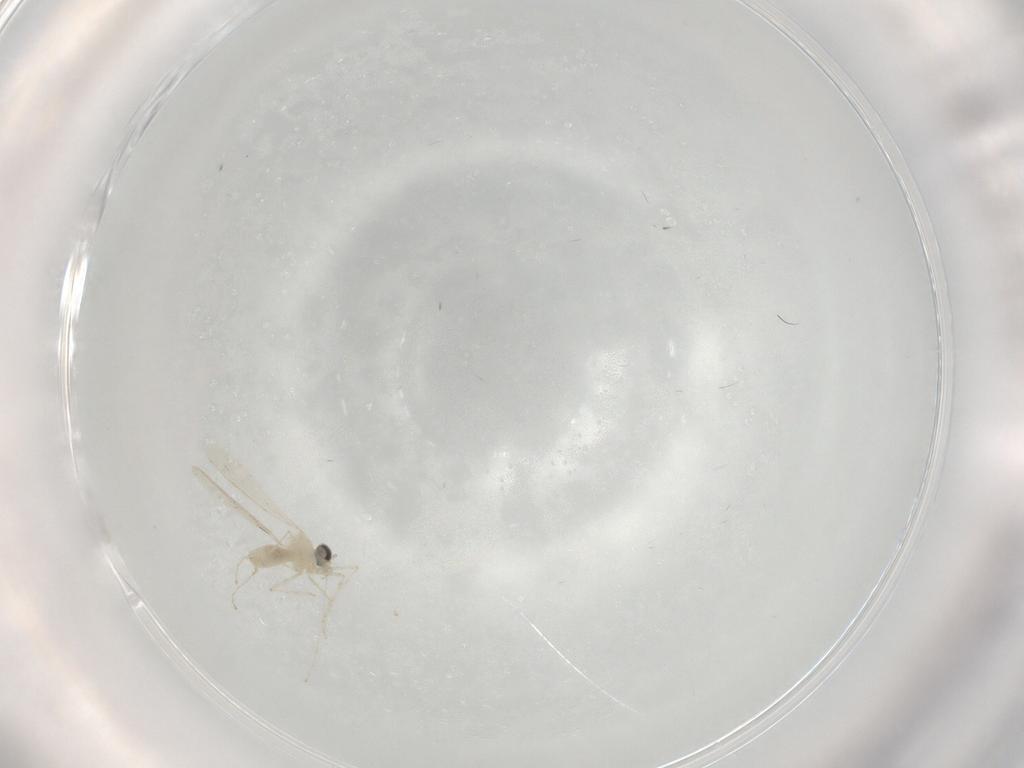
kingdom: Animalia
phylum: Arthropoda
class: Insecta
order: Diptera
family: Cecidomyiidae
